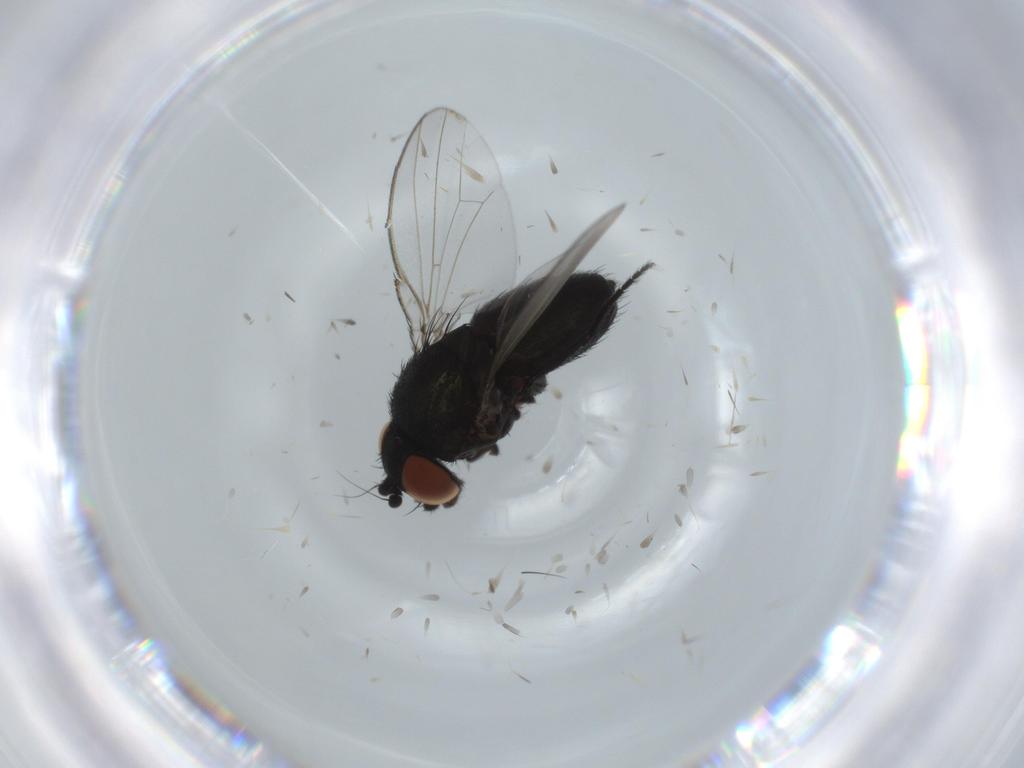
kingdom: Animalia
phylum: Arthropoda
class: Insecta
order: Diptera
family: Milichiidae
